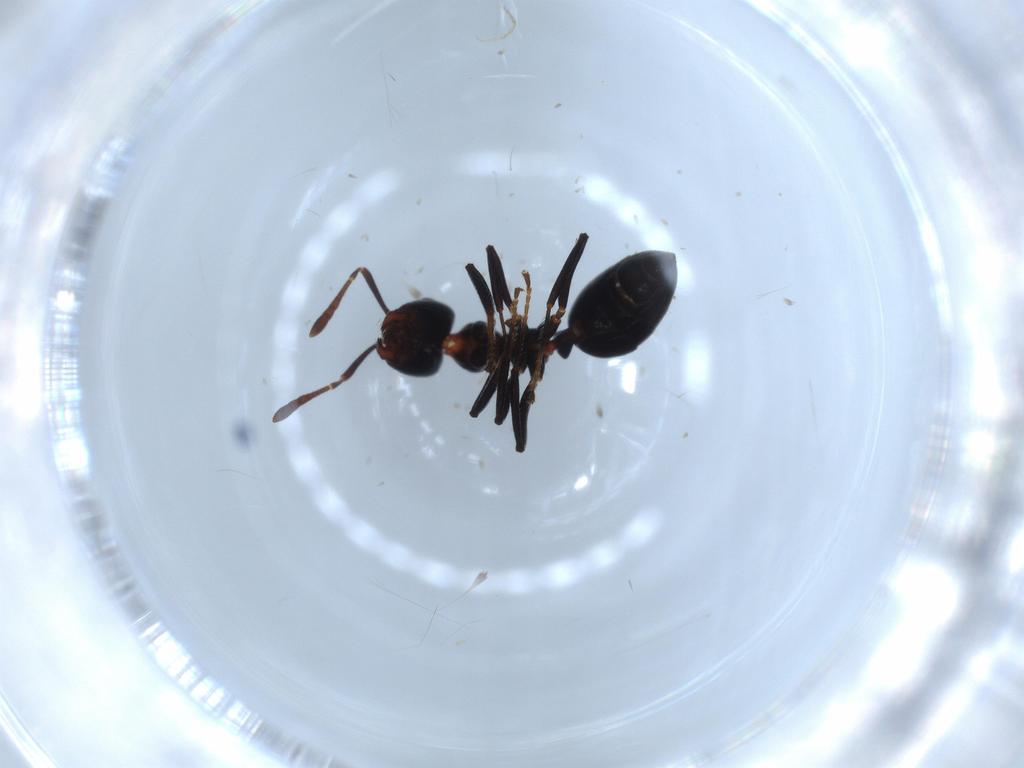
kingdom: Animalia
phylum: Arthropoda
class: Insecta
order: Hymenoptera
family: Formicidae
